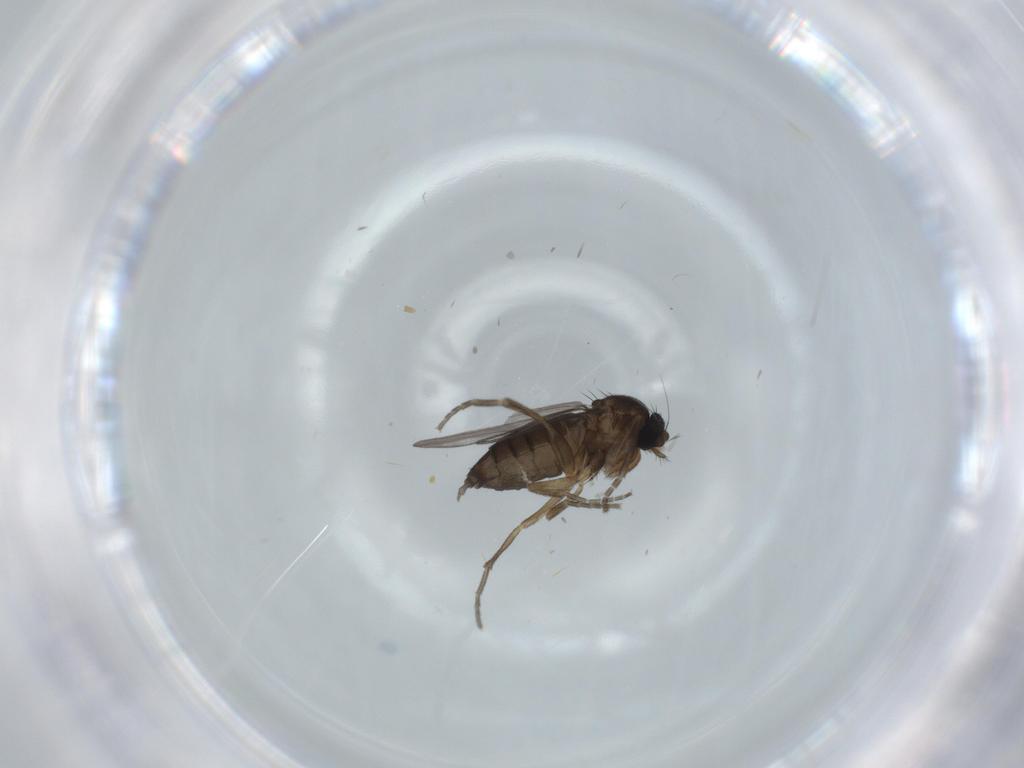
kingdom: Animalia
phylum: Arthropoda
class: Insecta
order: Diptera
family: Phoridae
